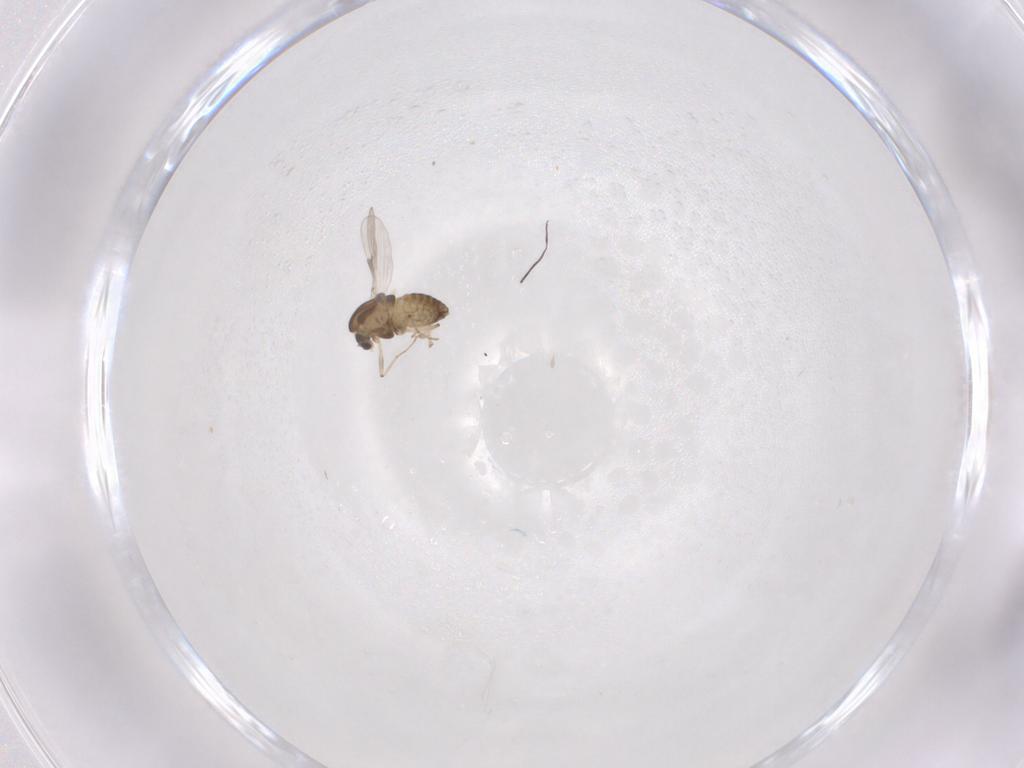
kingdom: Animalia
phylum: Arthropoda
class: Insecta
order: Diptera
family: Chironomidae
